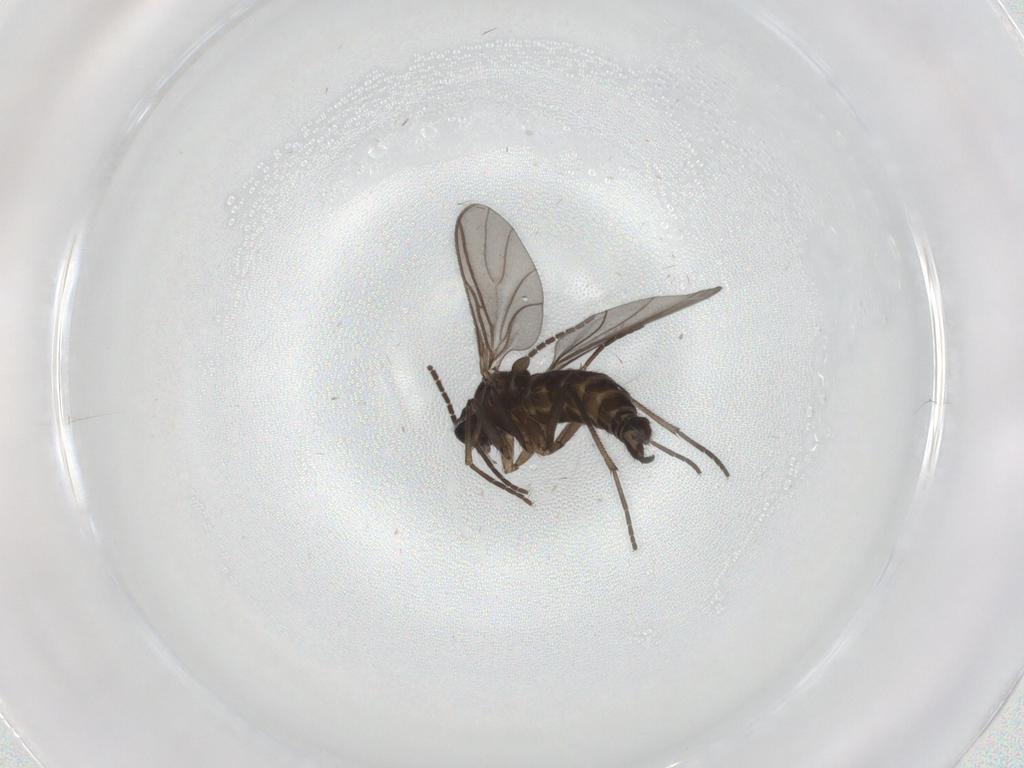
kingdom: Animalia
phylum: Arthropoda
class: Insecta
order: Diptera
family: Sciaridae
